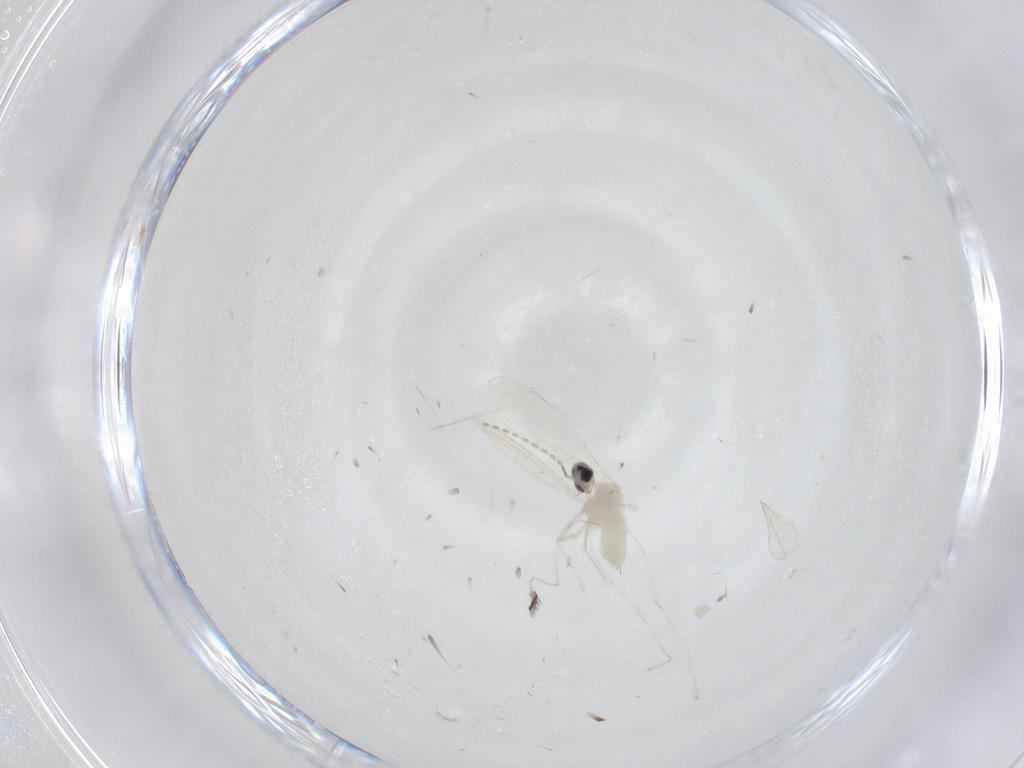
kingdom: Animalia
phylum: Arthropoda
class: Insecta
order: Diptera
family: Cecidomyiidae
